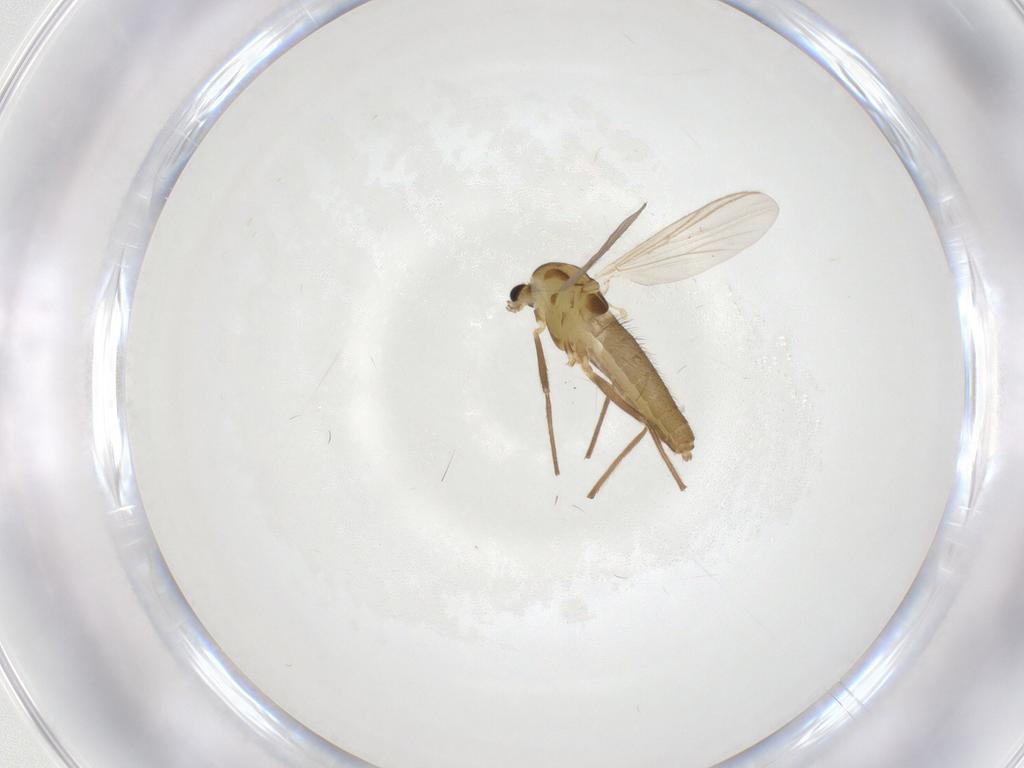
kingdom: Animalia
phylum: Arthropoda
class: Insecta
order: Diptera
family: Chironomidae
